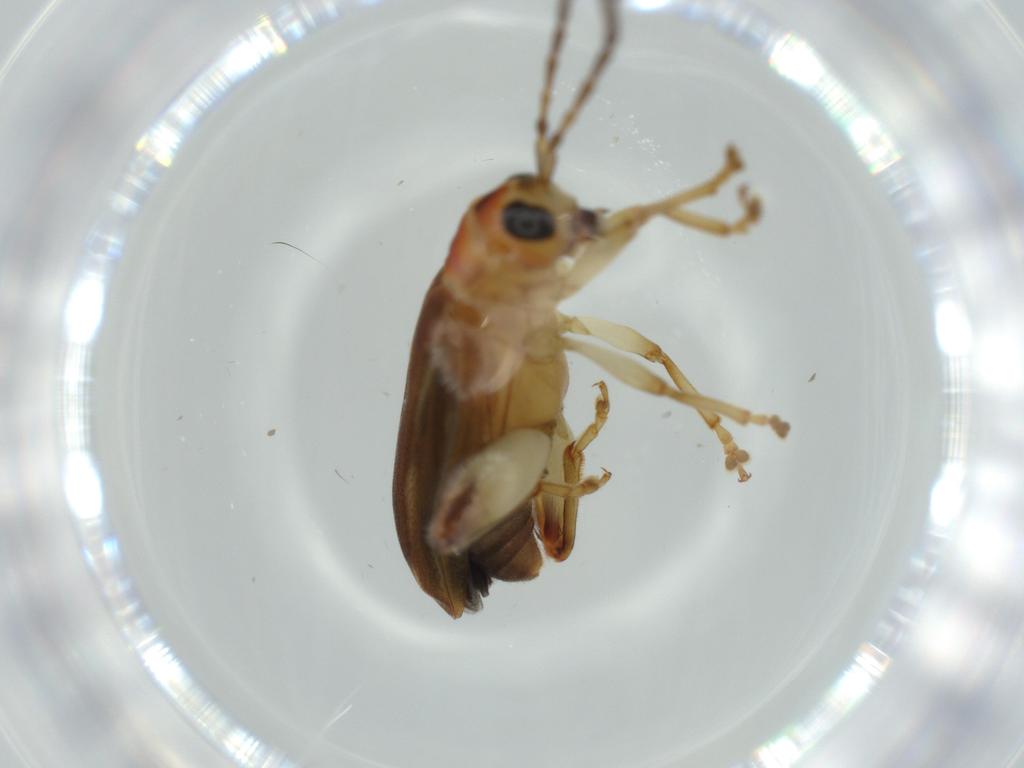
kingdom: Animalia
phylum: Arthropoda
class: Insecta
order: Coleoptera
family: Chrysomelidae
